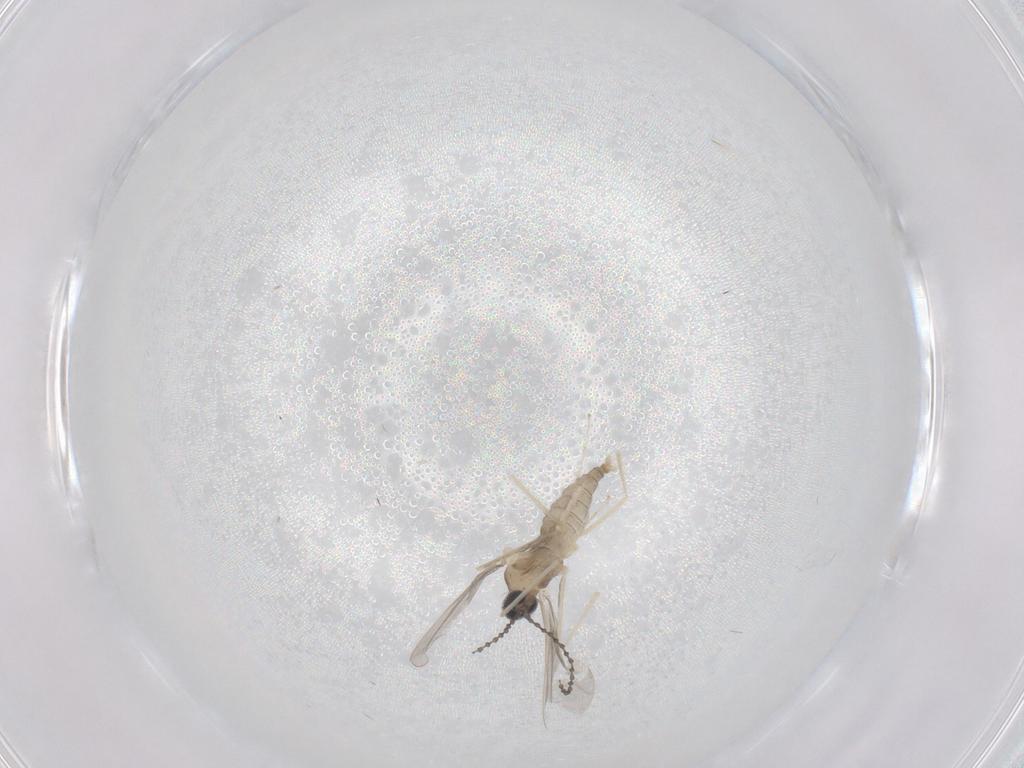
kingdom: Animalia
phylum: Arthropoda
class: Insecta
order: Diptera
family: Cecidomyiidae
